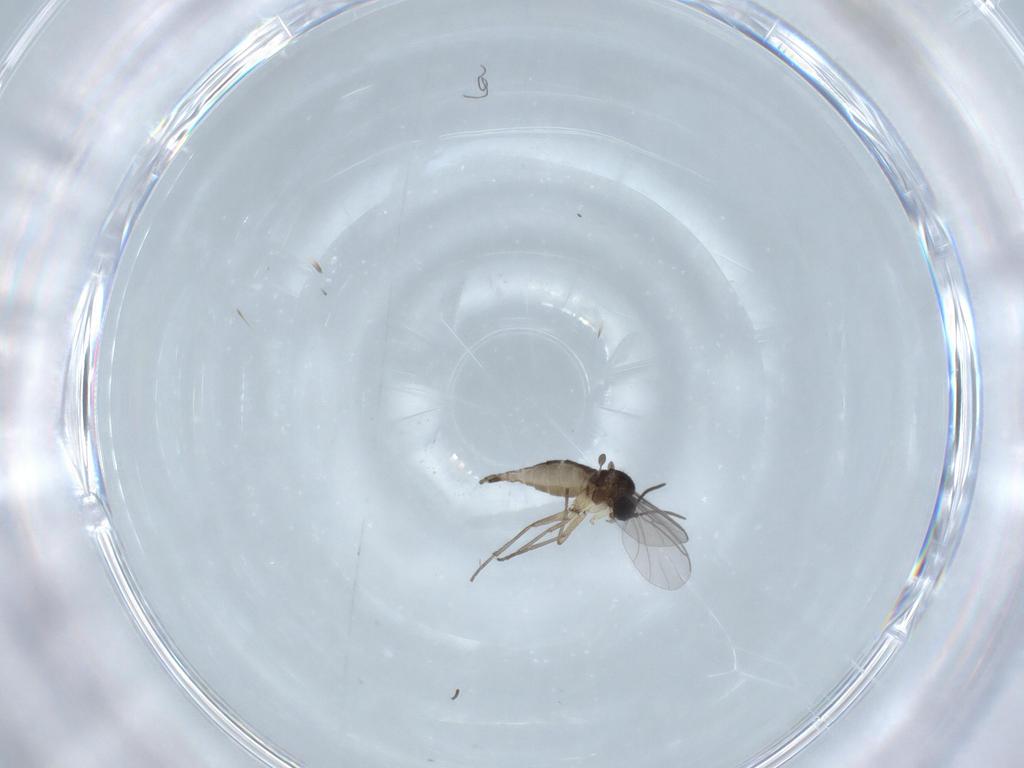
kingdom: Animalia
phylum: Arthropoda
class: Insecta
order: Diptera
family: Sciaridae
